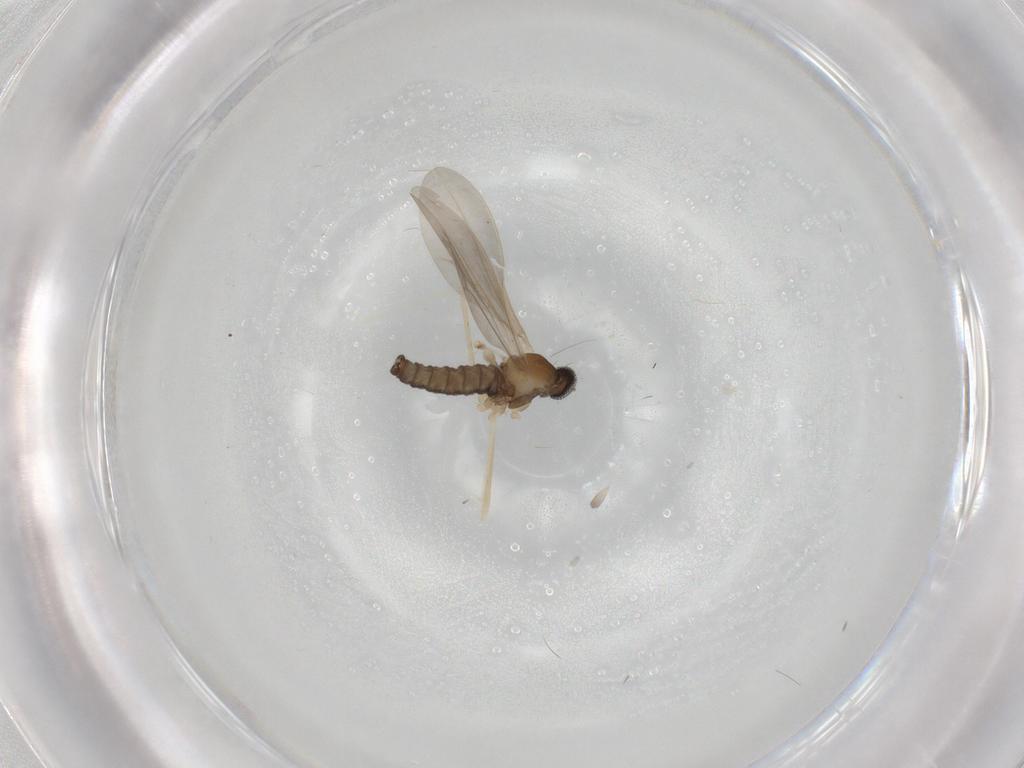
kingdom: Animalia
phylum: Arthropoda
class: Insecta
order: Diptera
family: Cecidomyiidae
